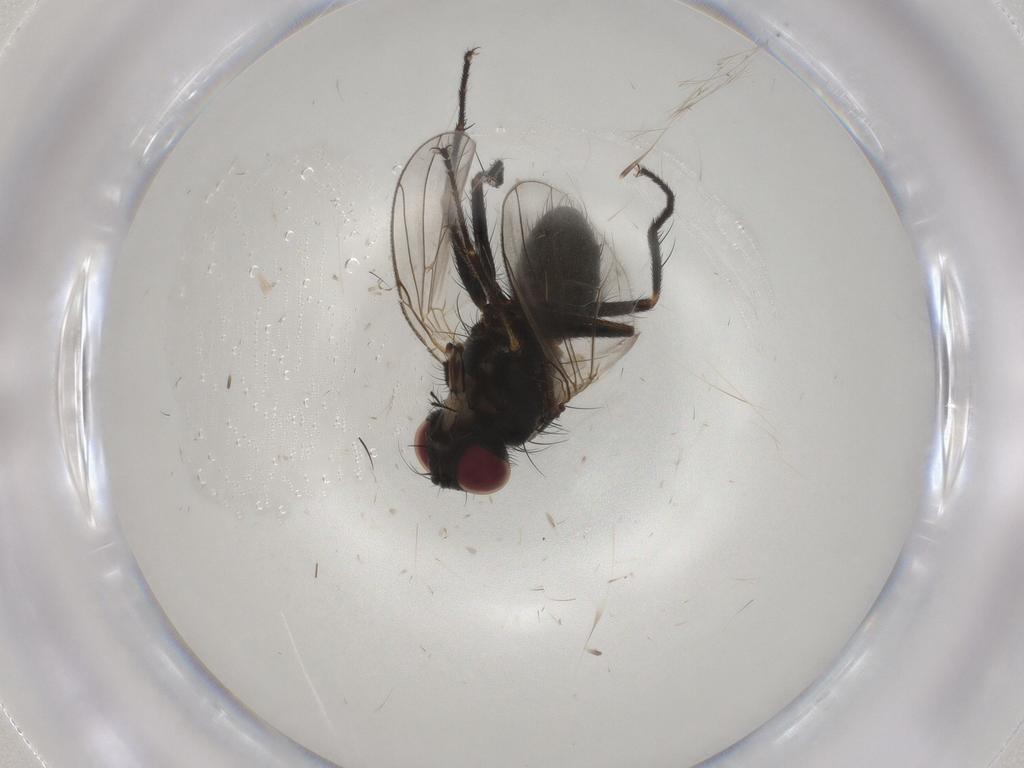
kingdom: Animalia
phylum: Arthropoda
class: Insecta
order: Diptera
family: Muscidae
